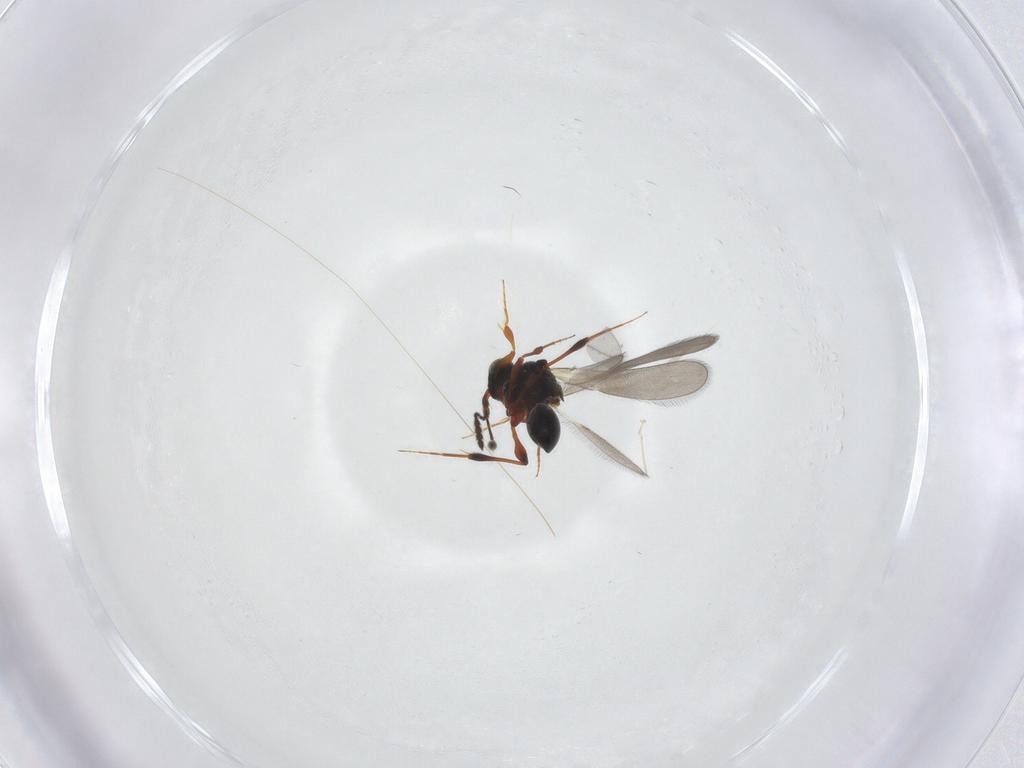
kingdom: Animalia
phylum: Arthropoda
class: Insecta
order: Hymenoptera
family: Platygastridae
